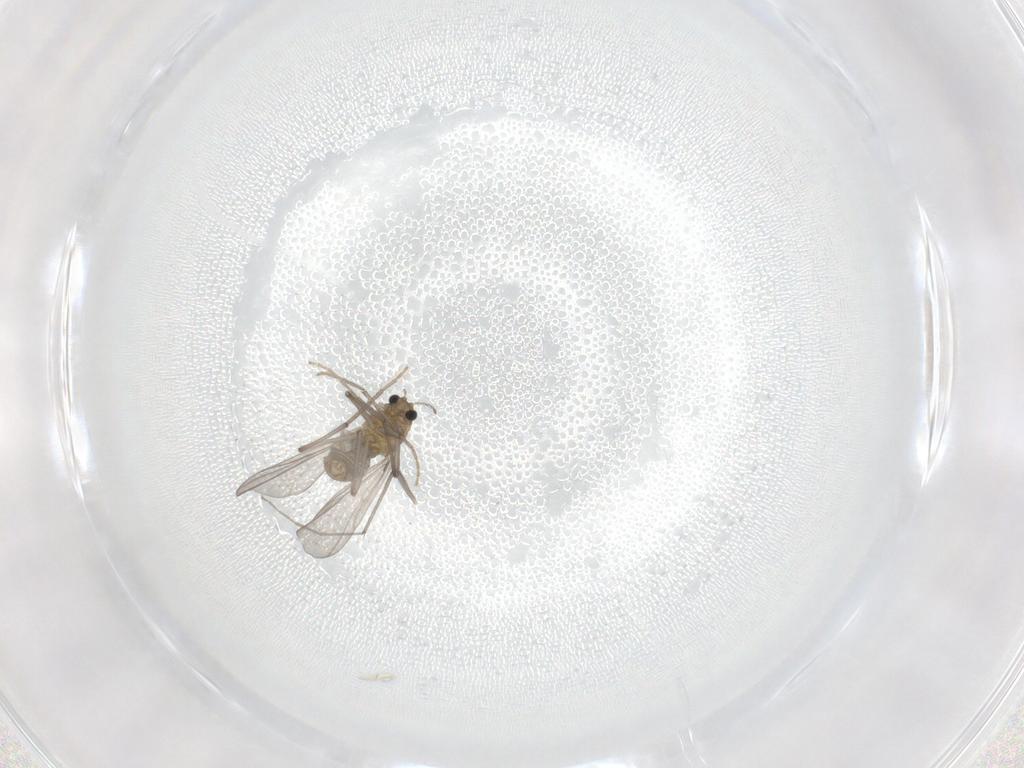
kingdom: Animalia
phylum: Arthropoda
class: Insecta
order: Diptera
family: Chironomidae
